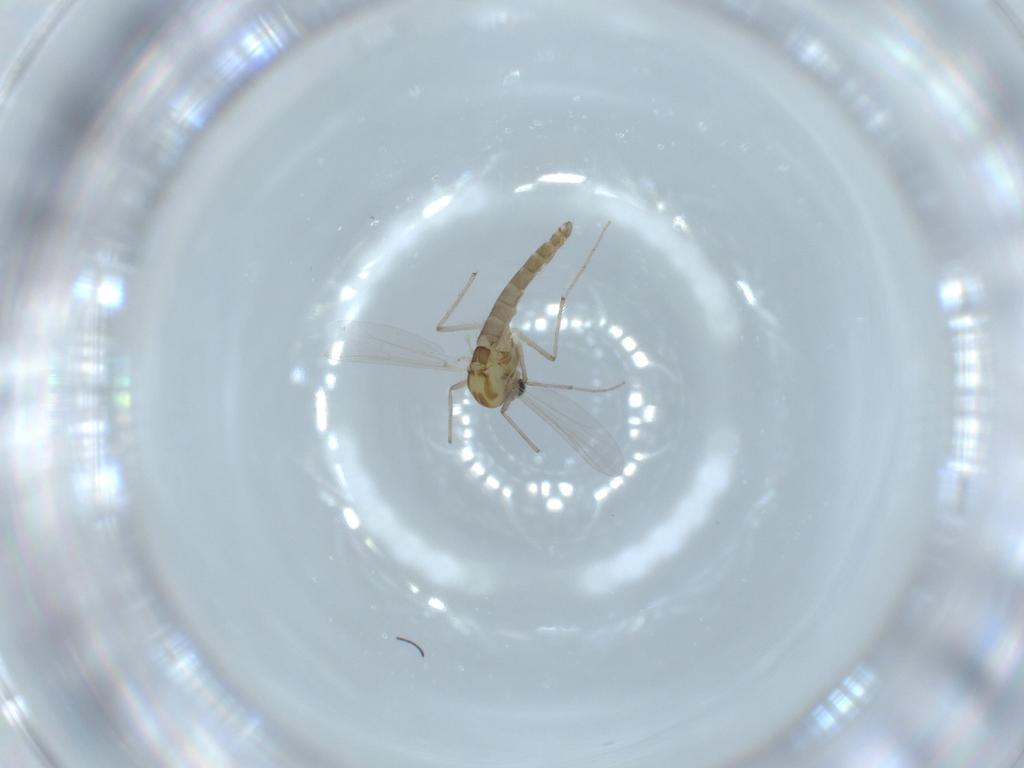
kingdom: Animalia
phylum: Arthropoda
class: Insecta
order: Diptera
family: Chironomidae
